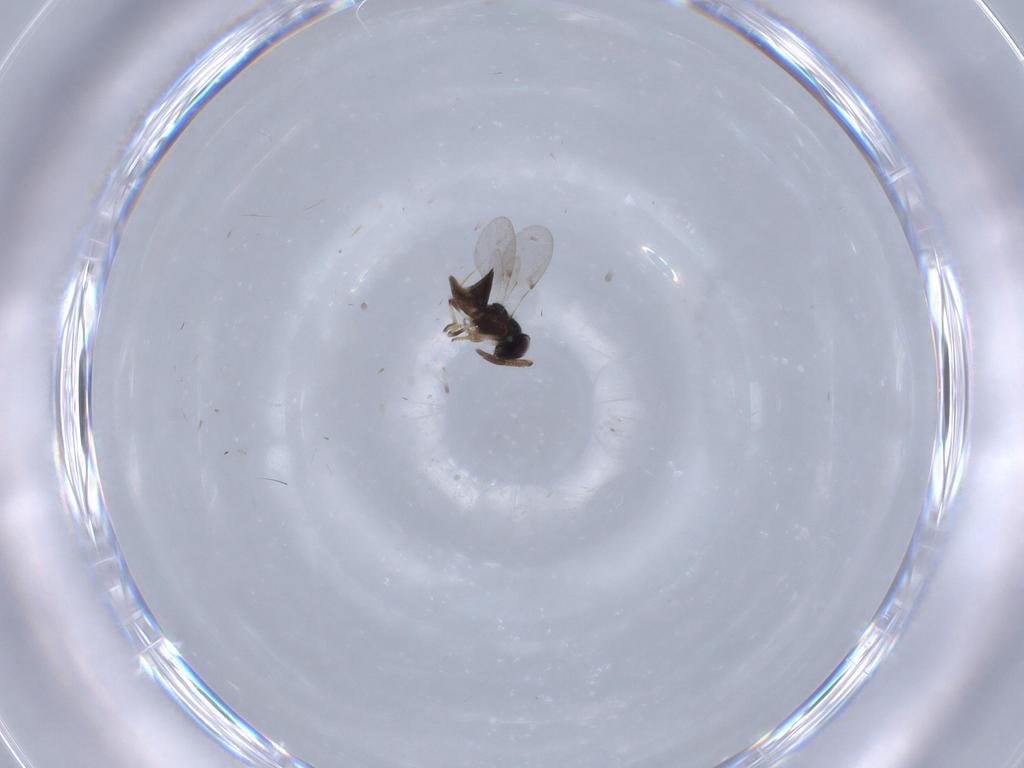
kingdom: Animalia
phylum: Arthropoda
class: Insecta
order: Hymenoptera
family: Encyrtidae
